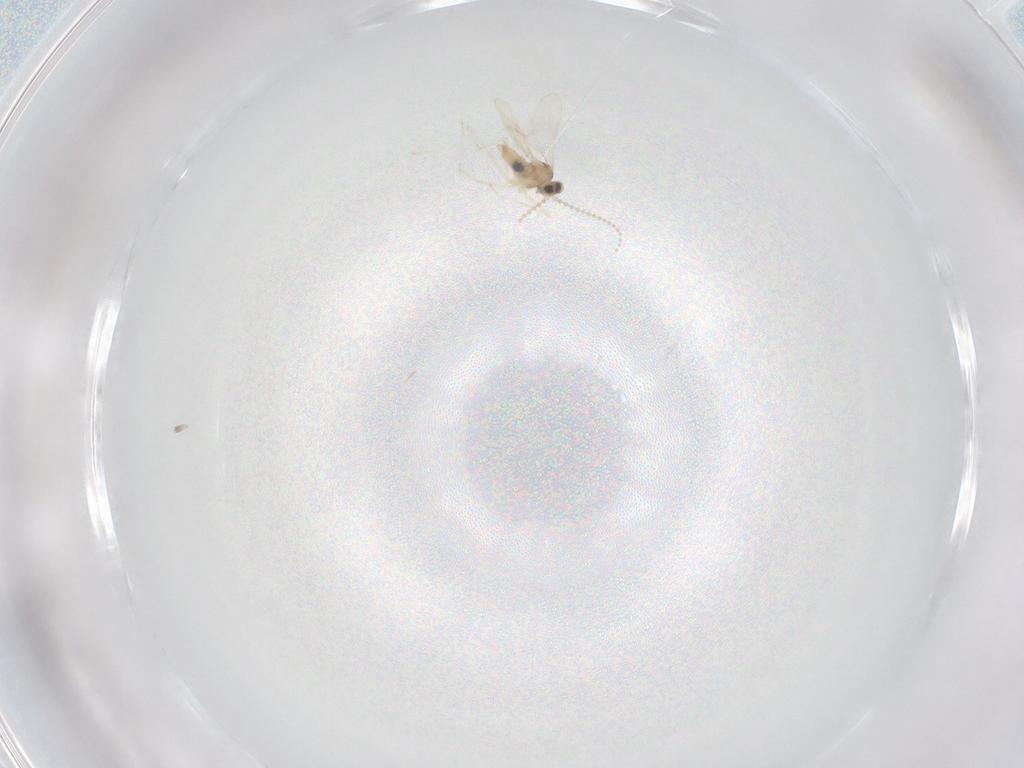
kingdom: Animalia
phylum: Arthropoda
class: Insecta
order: Diptera
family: Cecidomyiidae
